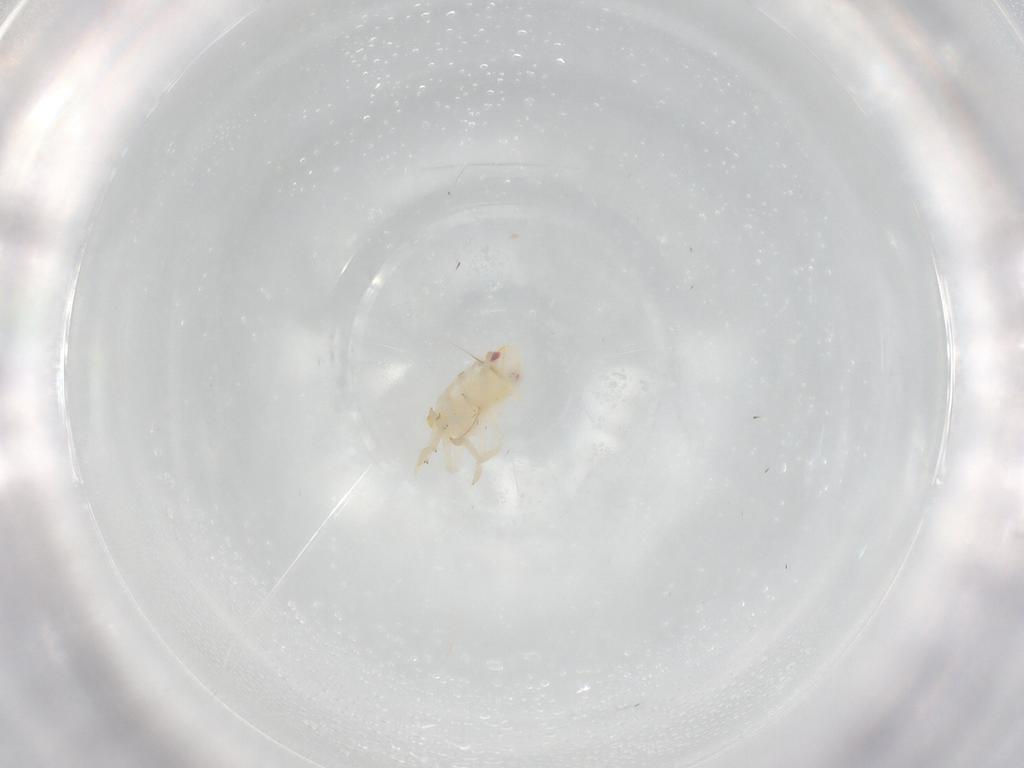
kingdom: Animalia
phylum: Arthropoda
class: Insecta
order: Hemiptera
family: Flatidae
